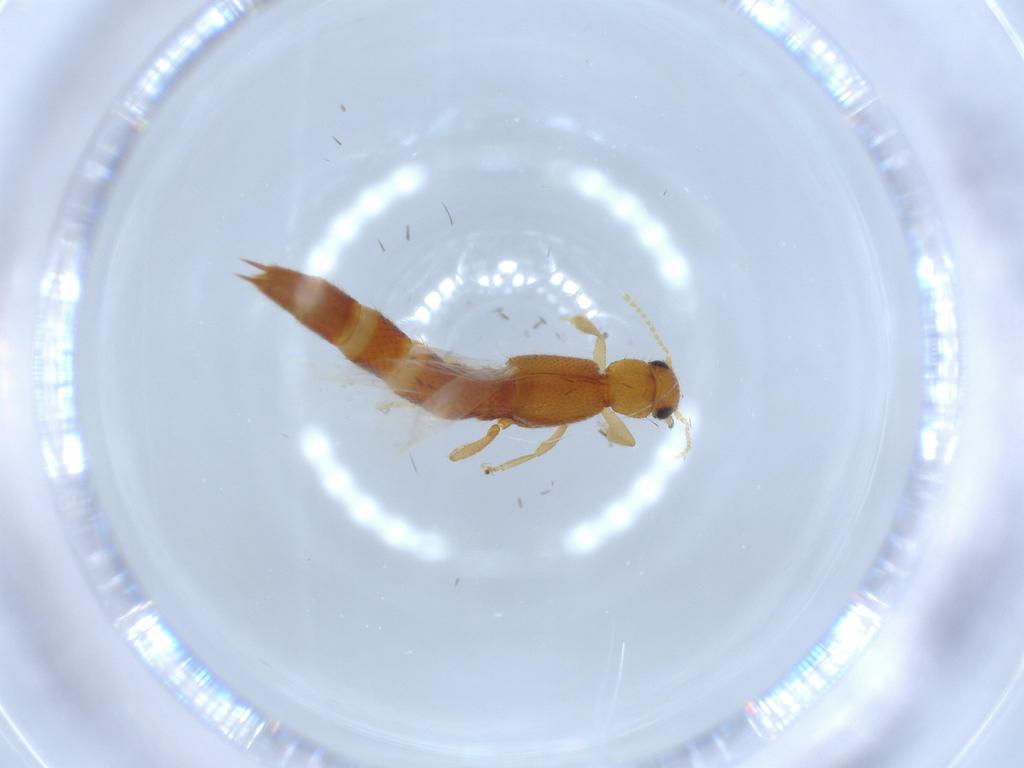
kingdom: Animalia
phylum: Arthropoda
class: Insecta
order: Coleoptera
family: Staphylinidae
